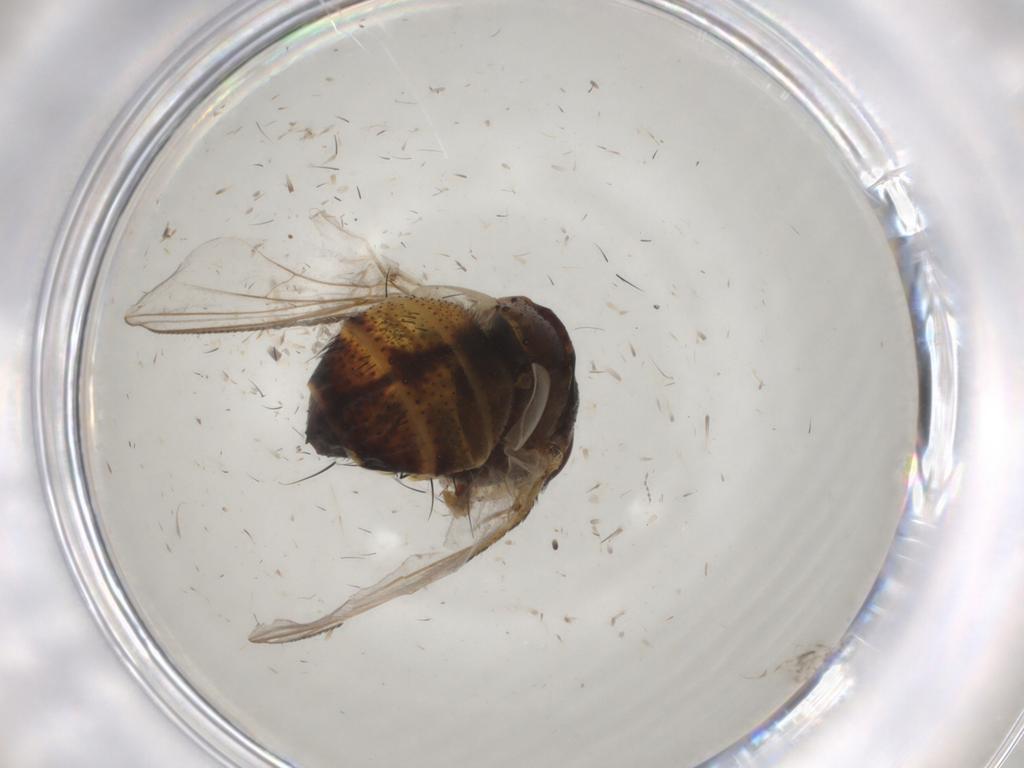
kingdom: Animalia
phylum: Arthropoda
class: Insecta
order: Diptera
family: Glossinidae
